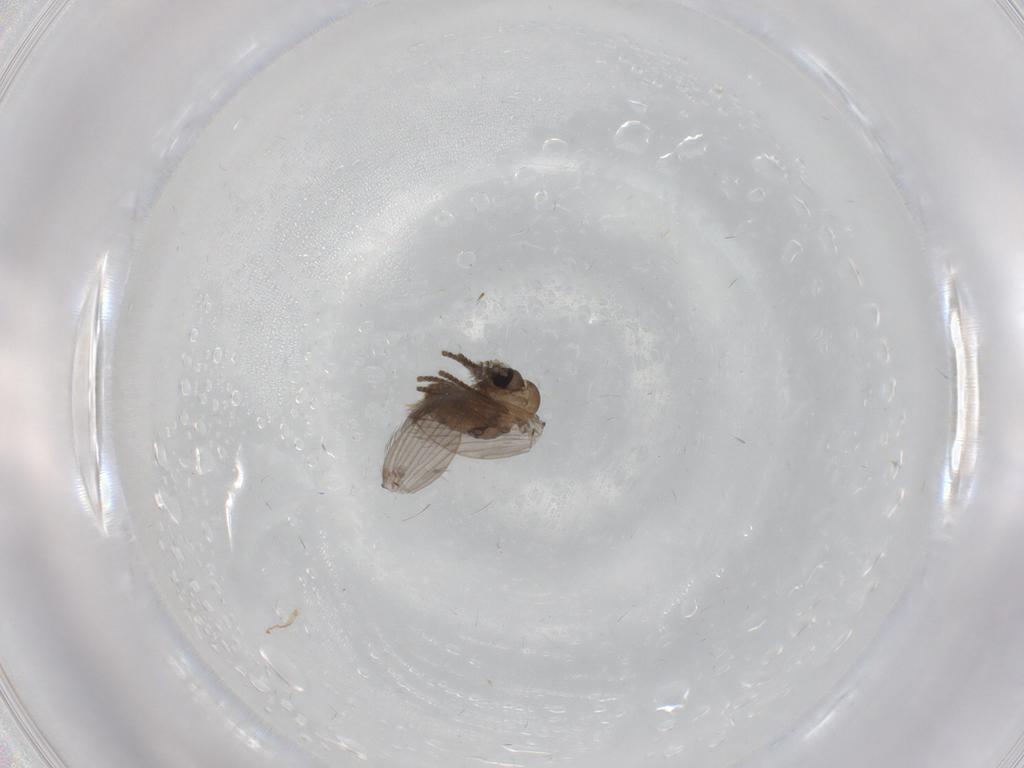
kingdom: Animalia
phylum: Arthropoda
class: Insecta
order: Diptera
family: Psychodidae
